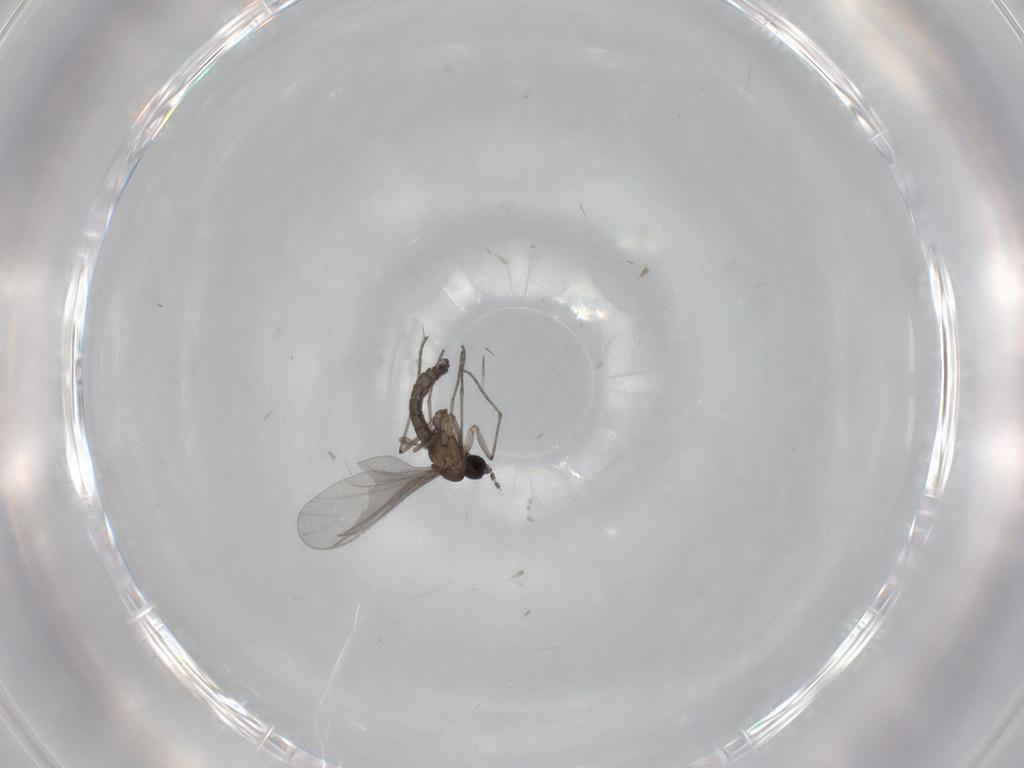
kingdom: Animalia
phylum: Arthropoda
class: Insecta
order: Diptera
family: Sciaridae
